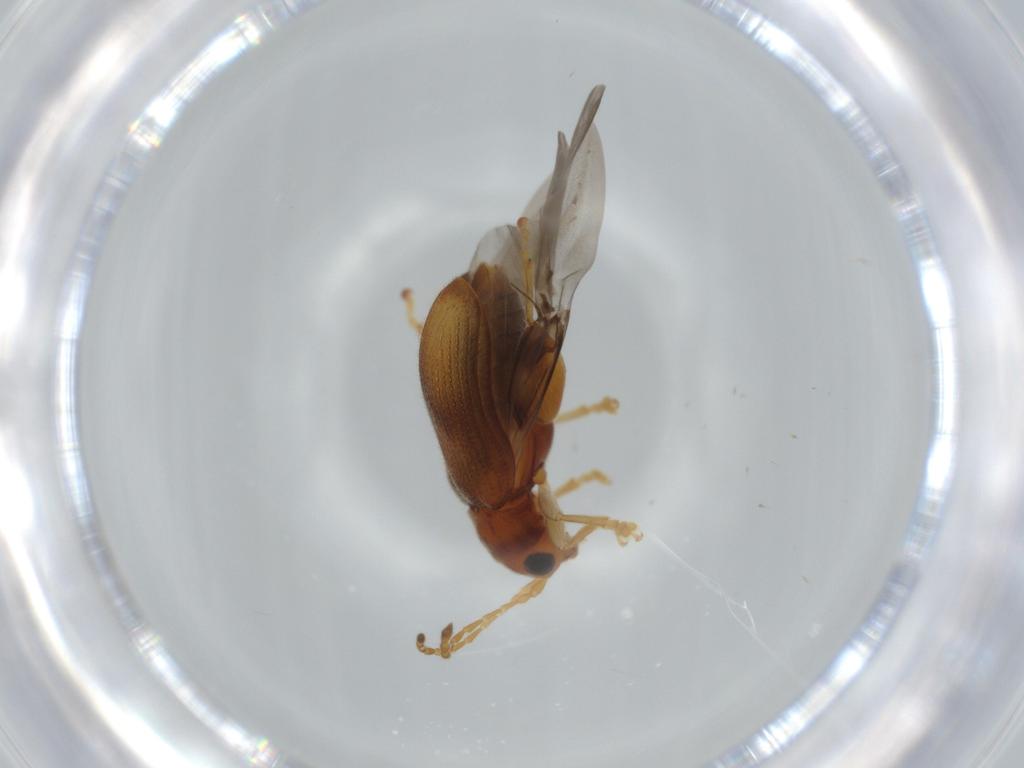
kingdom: Animalia
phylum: Arthropoda
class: Insecta
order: Coleoptera
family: Chrysomelidae
